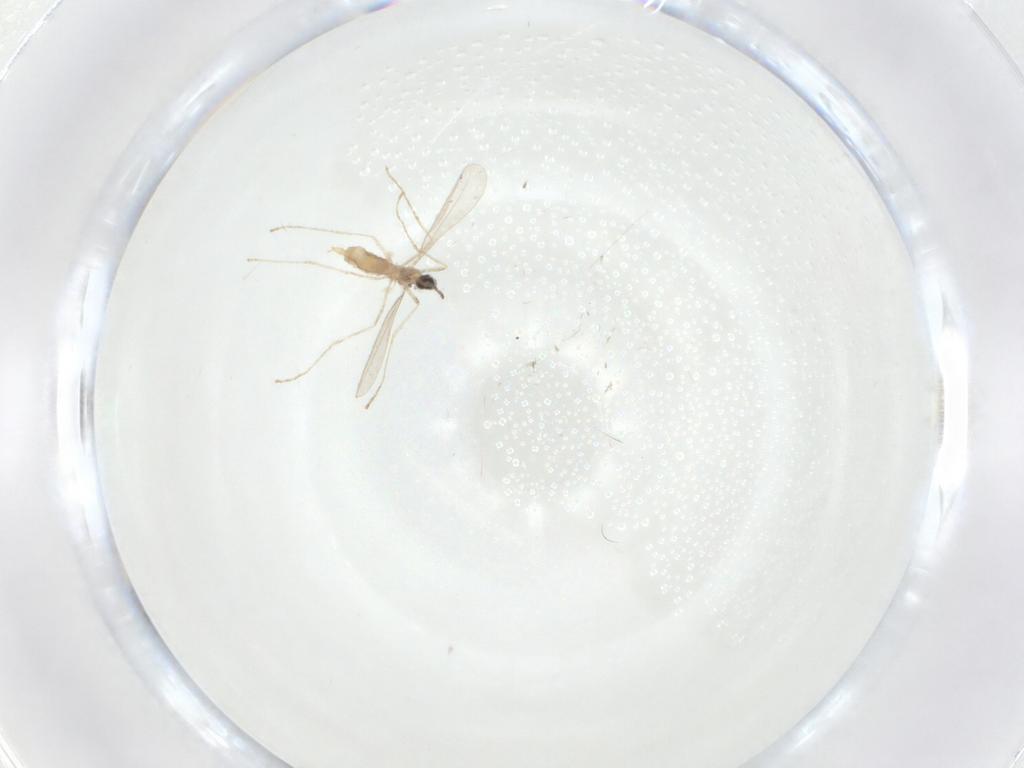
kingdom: Animalia
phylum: Arthropoda
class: Insecta
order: Diptera
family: Cecidomyiidae
